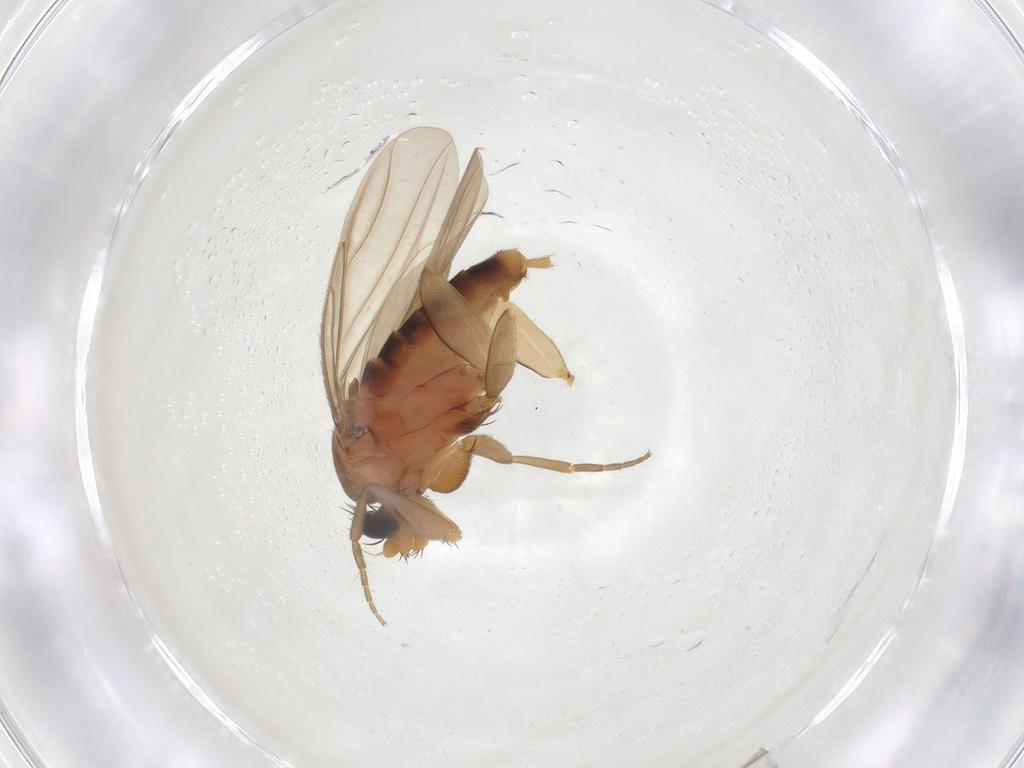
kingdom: Animalia
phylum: Arthropoda
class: Insecta
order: Diptera
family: Ceratopogonidae
